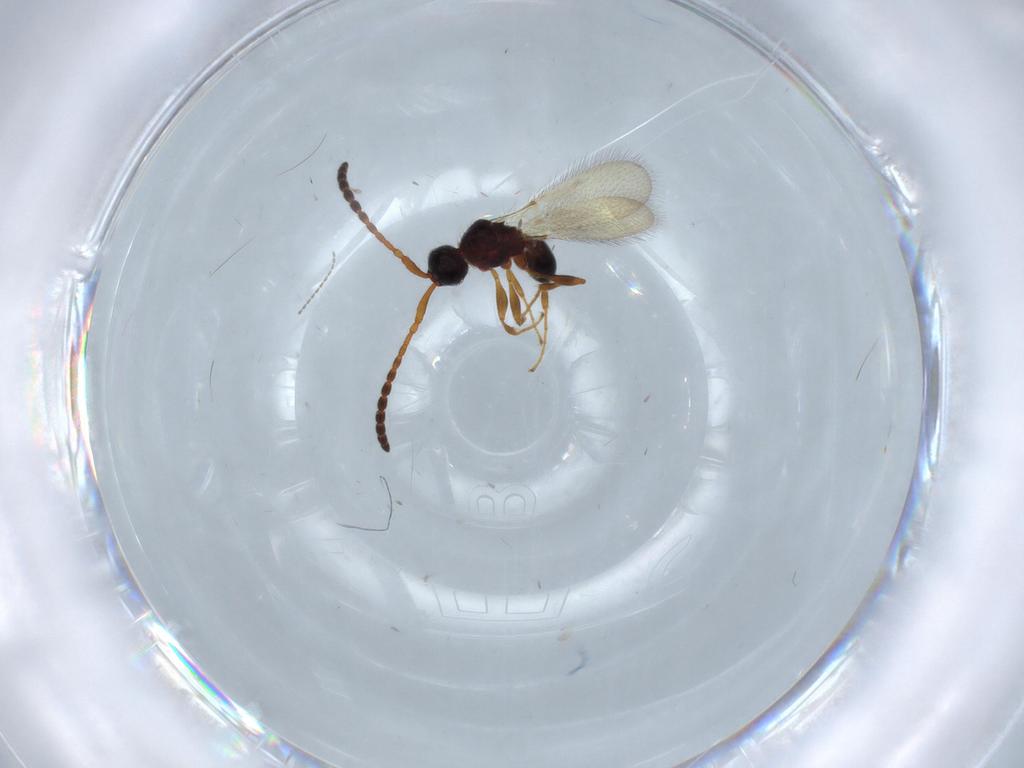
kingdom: Animalia
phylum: Arthropoda
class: Insecta
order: Hymenoptera
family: Diapriidae
